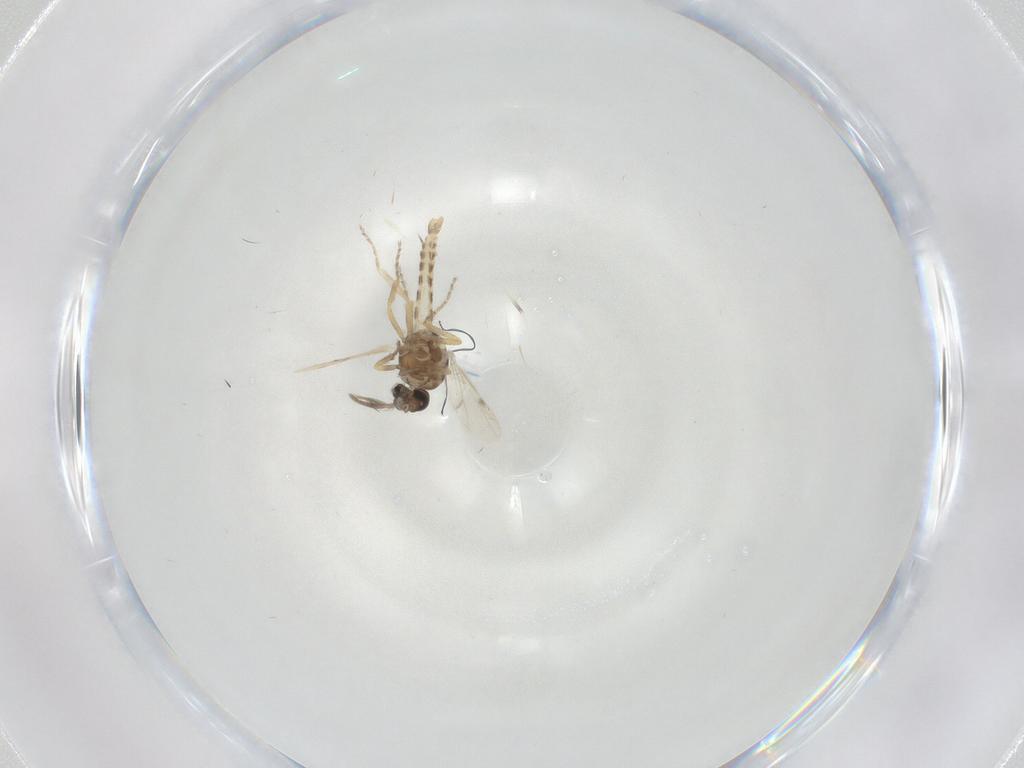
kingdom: Animalia
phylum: Arthropoda
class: Insecta
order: Diptera
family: Ceratopogonidae
